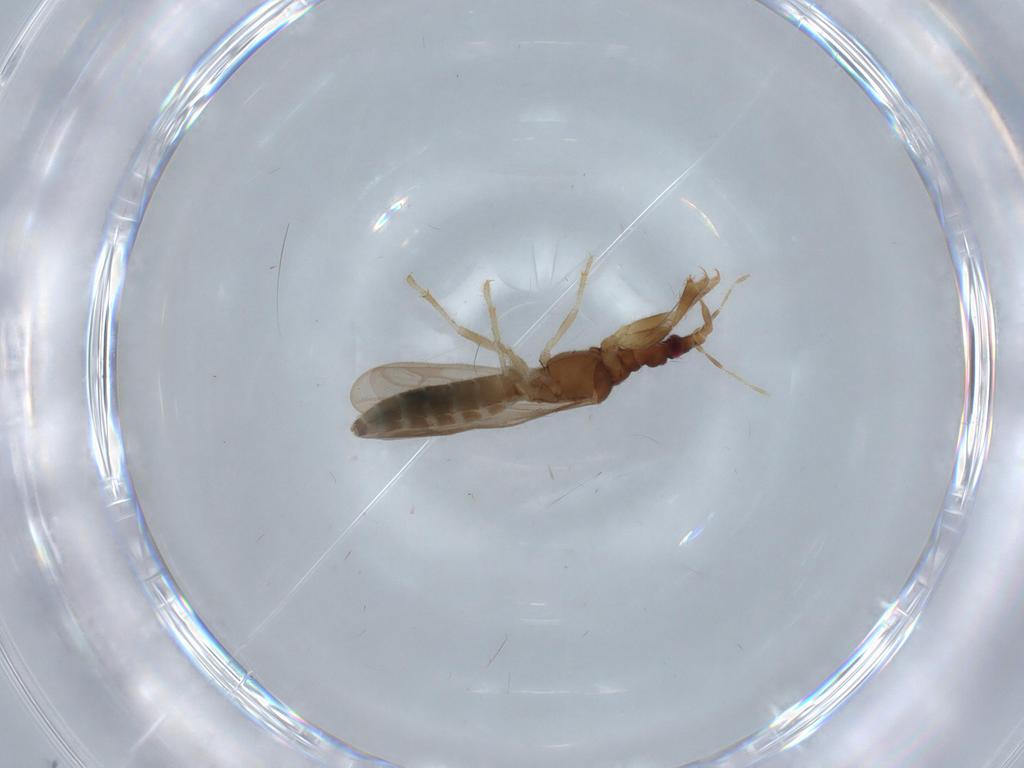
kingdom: Animalia
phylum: Arthropoda
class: Insecta
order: Hemiptera
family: Enicocephalidae
